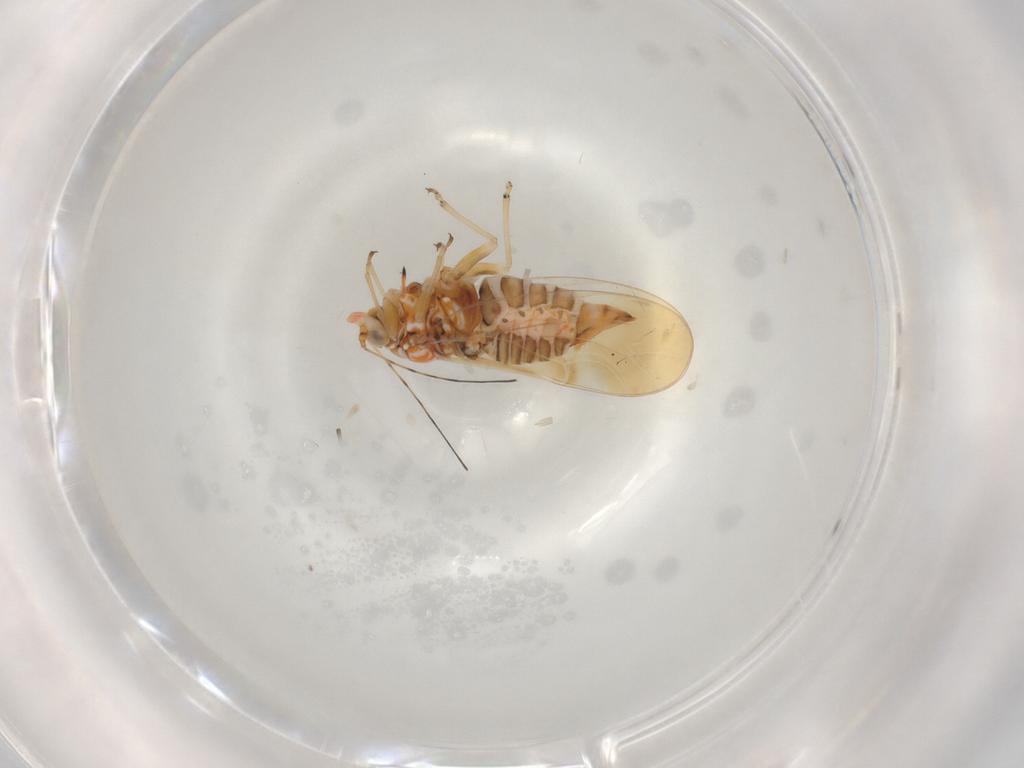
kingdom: Animalia
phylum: Arthropoda
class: Insecta
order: Hemiptera
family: Psyllidae
